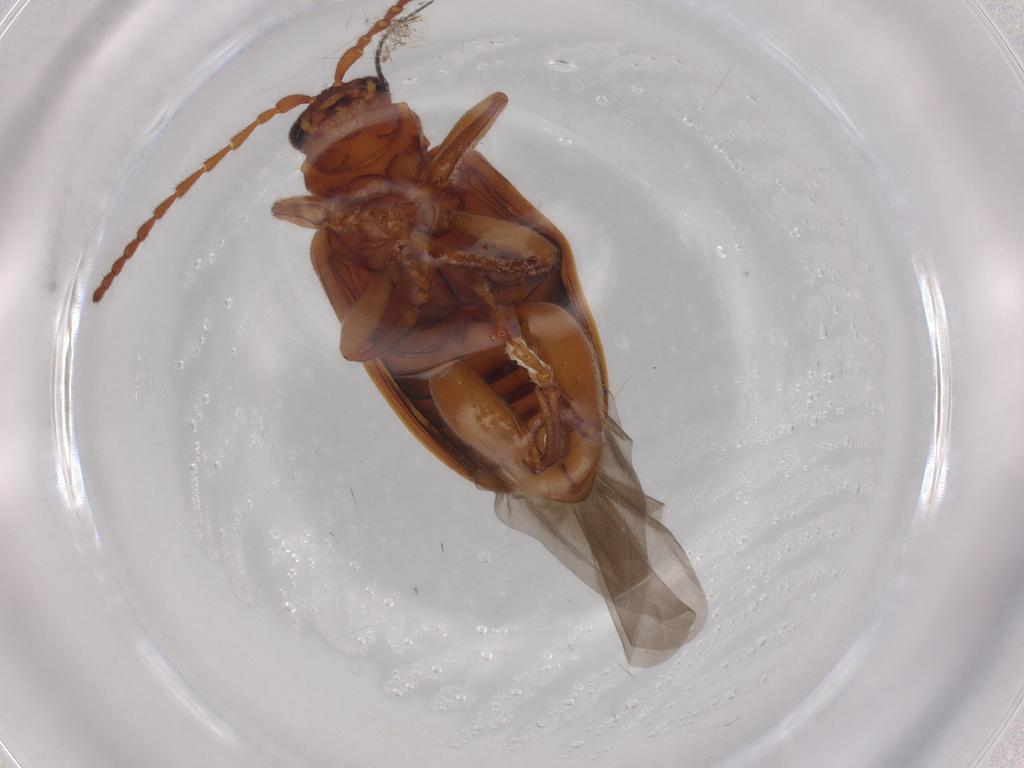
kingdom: Animalia
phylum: Arthropoda
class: Insecta
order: Coleoptera
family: Chrysomelidae
